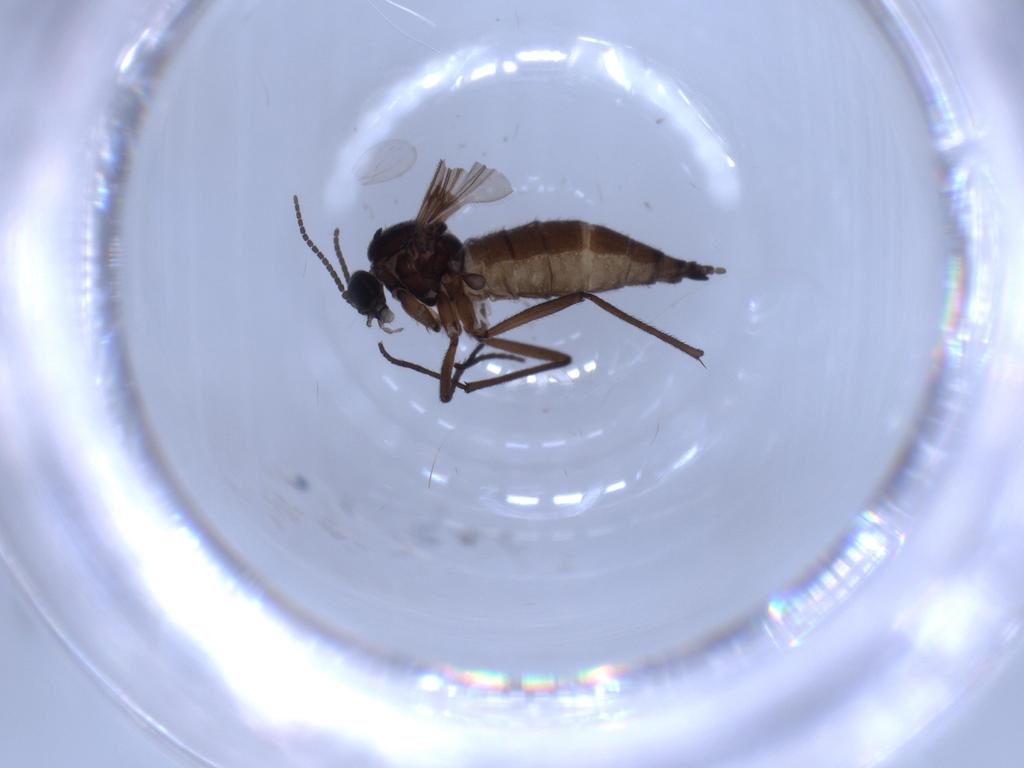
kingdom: Animalia
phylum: Arthropoda
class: Insecta
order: Diptera
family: Sciaridae
